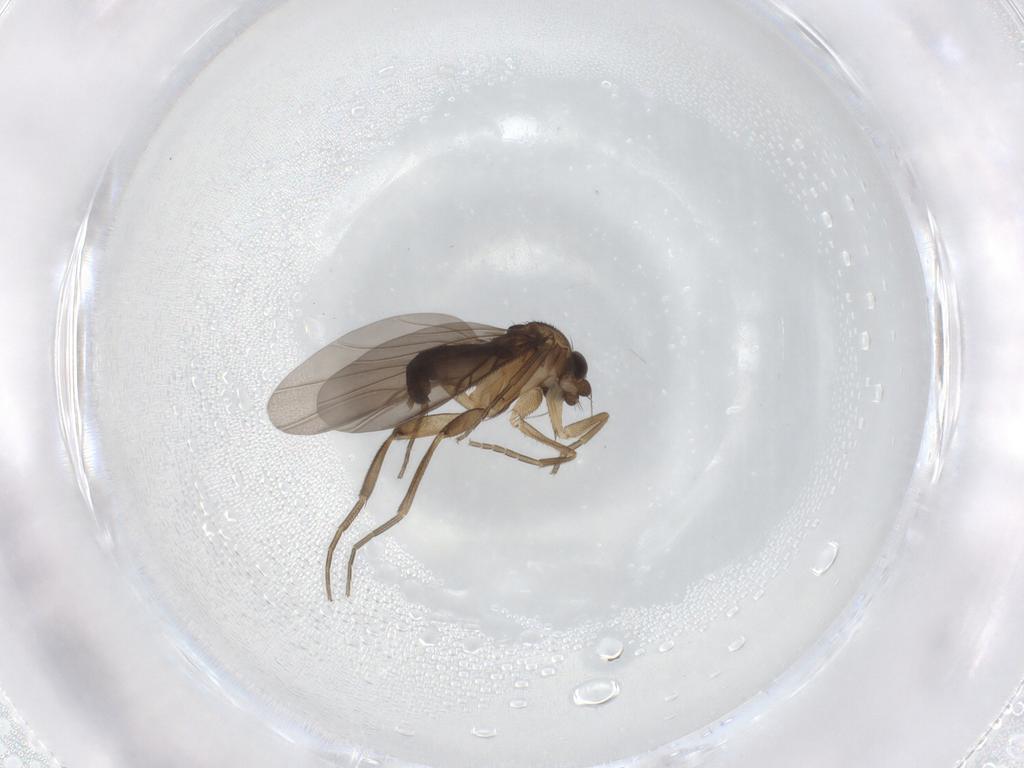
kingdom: Animalia
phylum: Arthropoda
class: Insecta
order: Diptera
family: Phoridae
